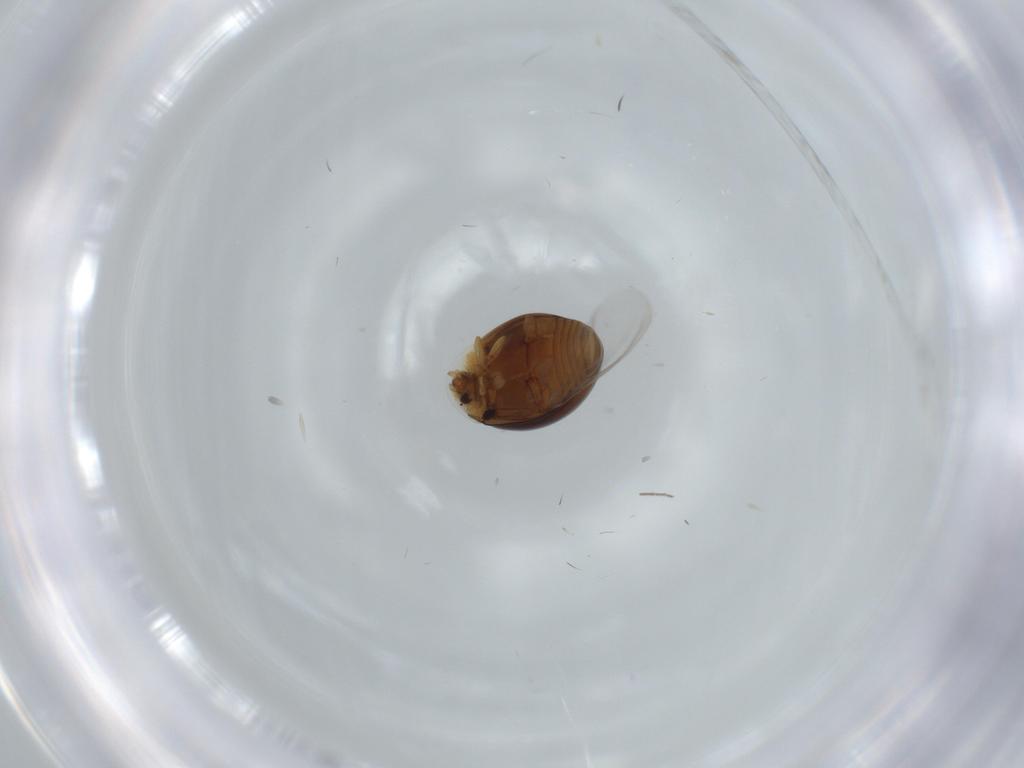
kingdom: Animalia
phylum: Arthropoda
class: Insecta
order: Coleoptera
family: Corylophidae
